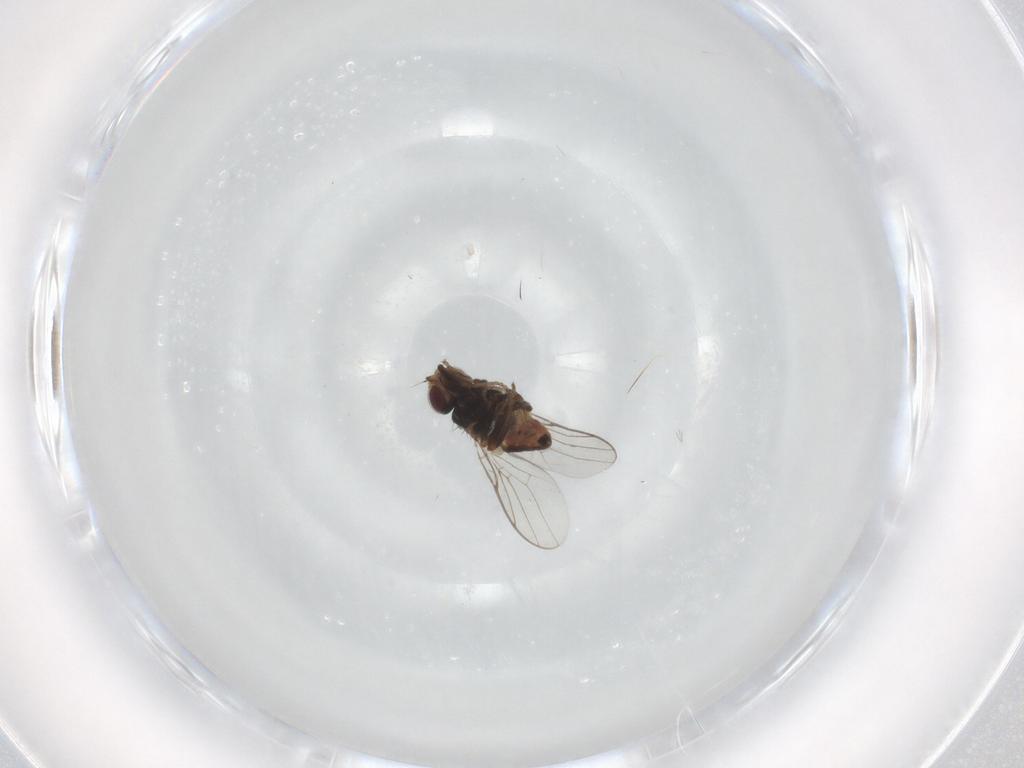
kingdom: Animalia
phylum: Arthropoda
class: Insecta
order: Diptera
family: Chloropidae
